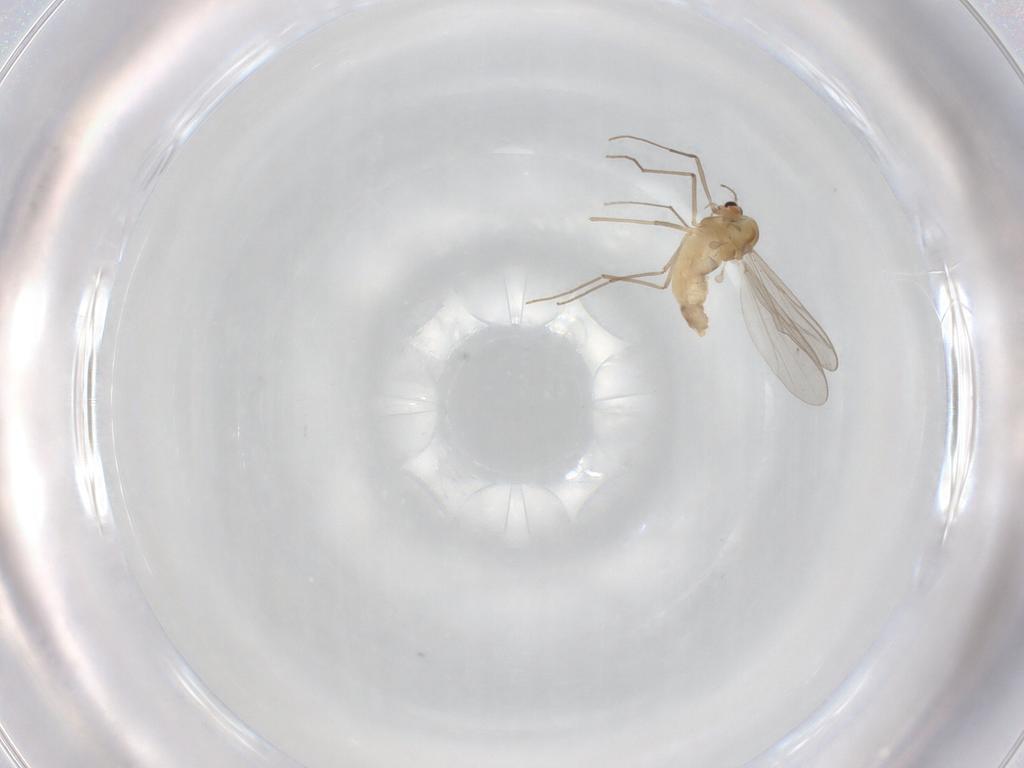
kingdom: Animalia
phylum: Arthropoda
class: Insecta
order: Diptera
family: Chironomidae
